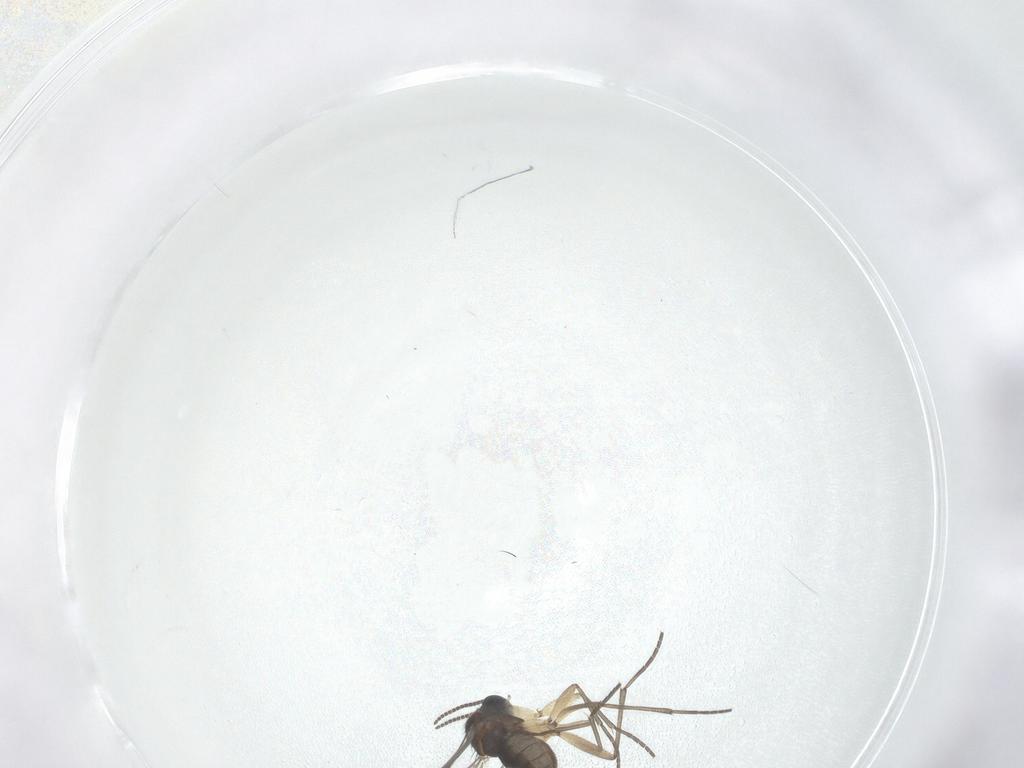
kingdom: Animalia
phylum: Arthropoda
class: Insecta
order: Diptera
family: Sciaridae
